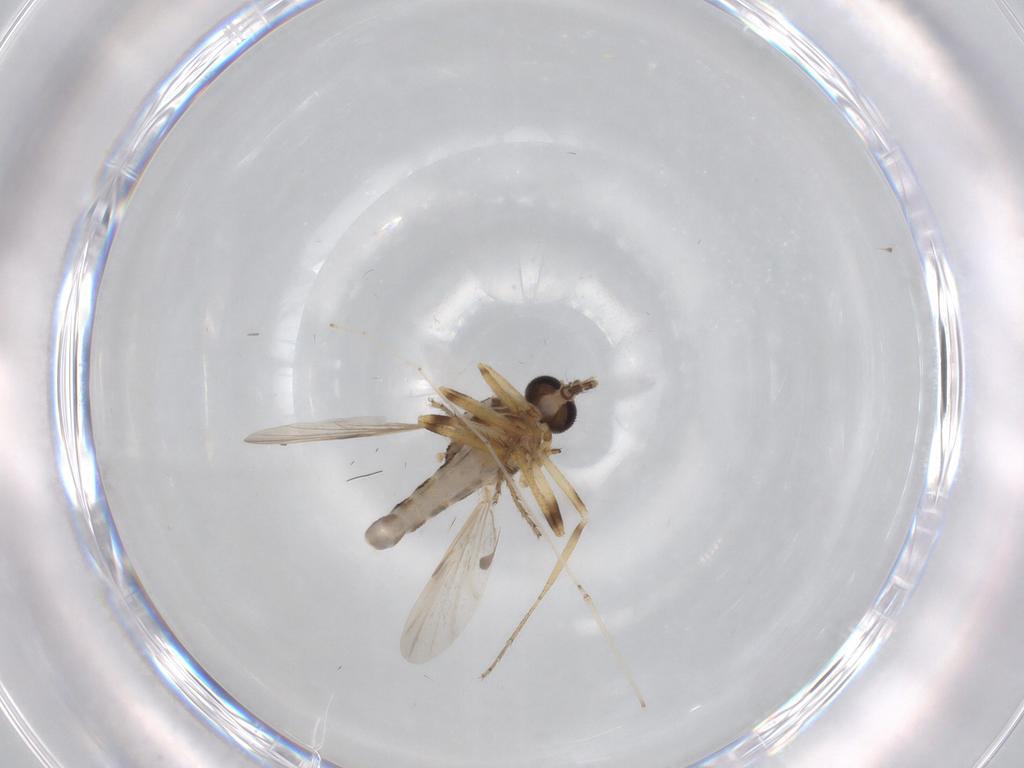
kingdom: Animalia
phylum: Arthropoda
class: Insecta
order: Diptera
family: Ceratopogonidae
